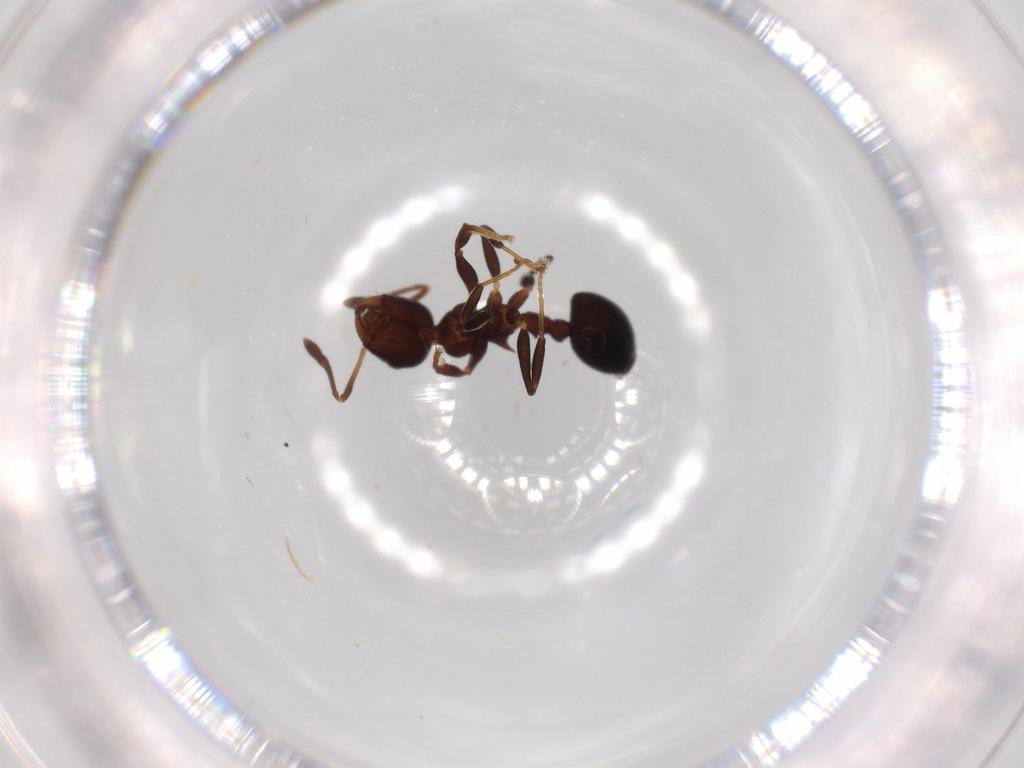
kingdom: Animalia
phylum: Arthropoda
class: Insecta
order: Hymenoptera
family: Formicidae
